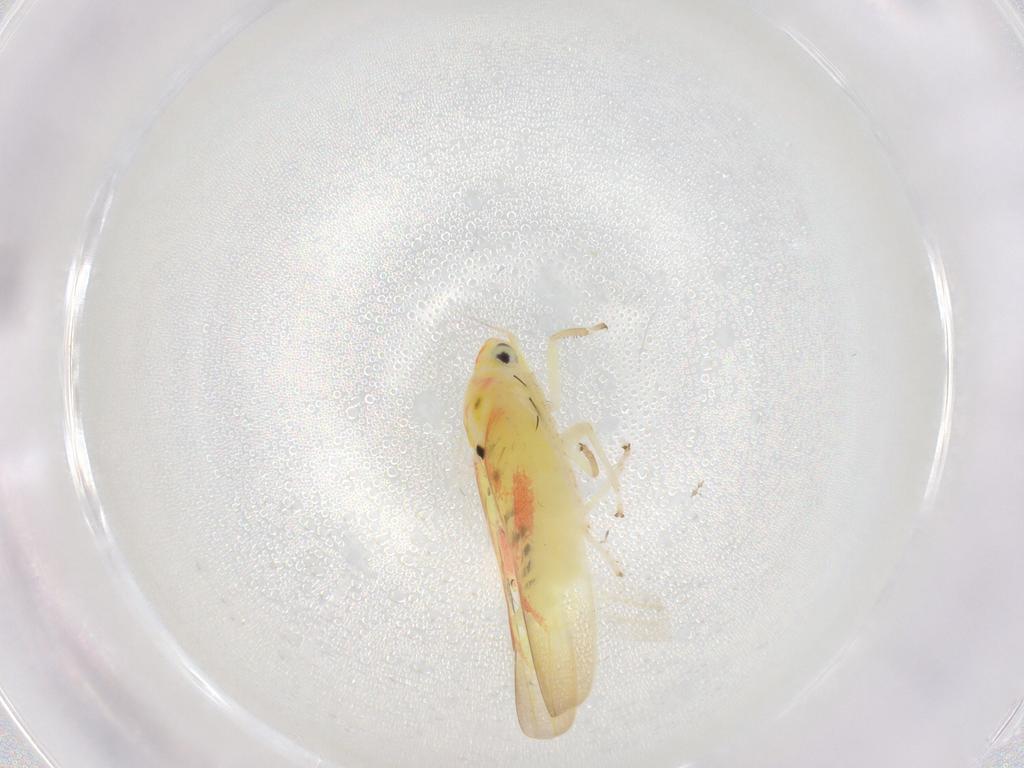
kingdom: Animalia
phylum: Arthropoda
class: Insecta
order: Hemiptera
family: Cicadellidae
